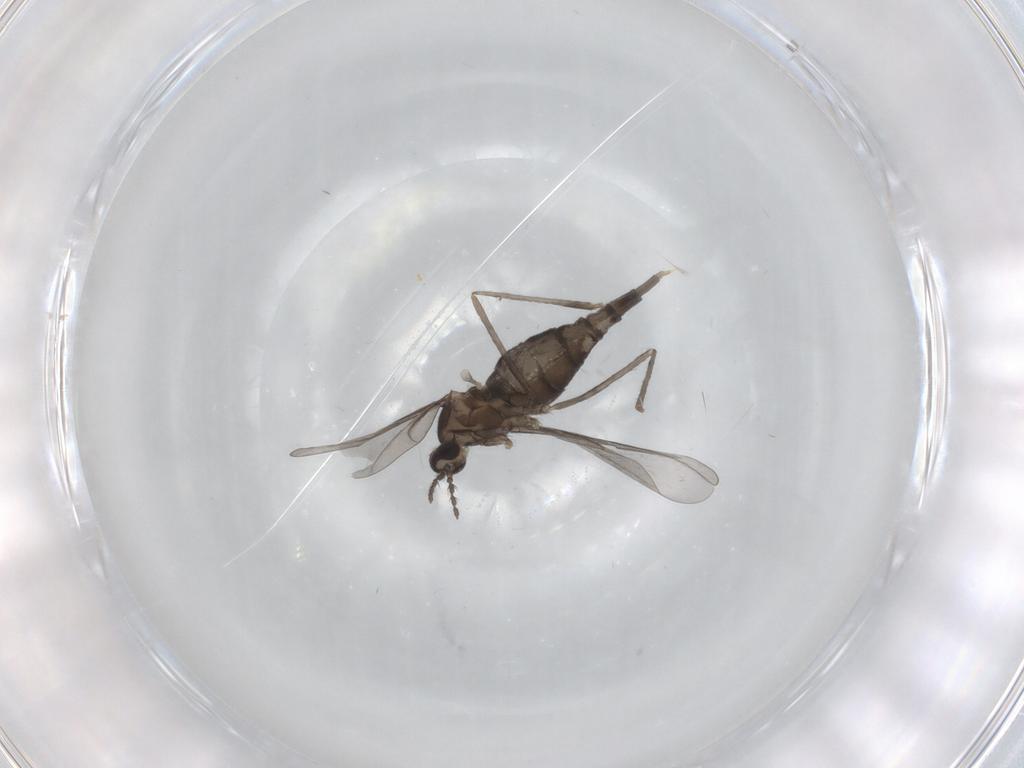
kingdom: Animalia
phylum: Arthropoda
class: Insecta
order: Diptera
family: Cecidomyiidae
